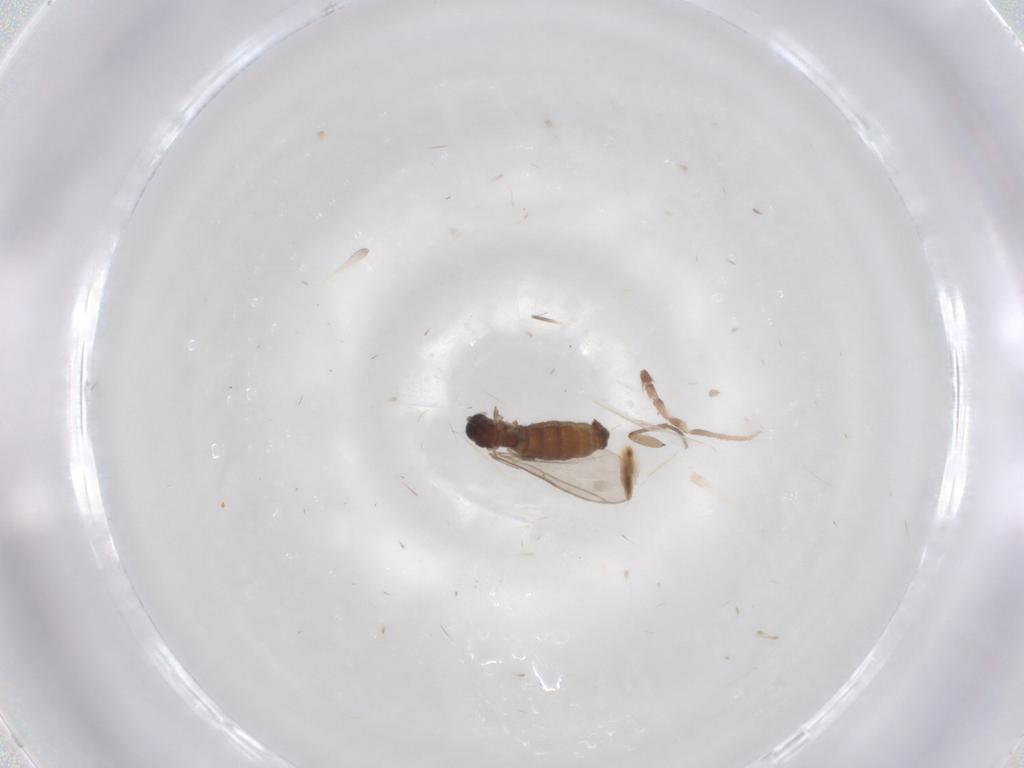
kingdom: Animalia
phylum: Arthropoda
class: Insecta
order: Diptera
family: Sciaridae
